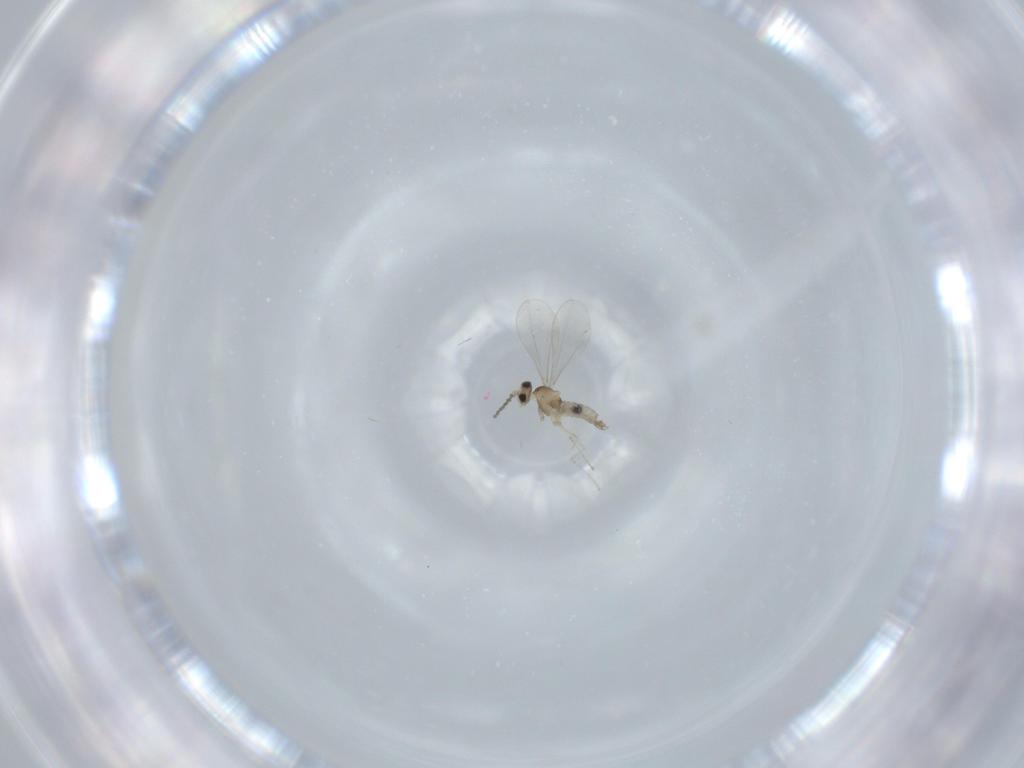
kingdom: Animalia
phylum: Arthropoda
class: Insecta
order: Diptera
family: Cecidomyiidae
